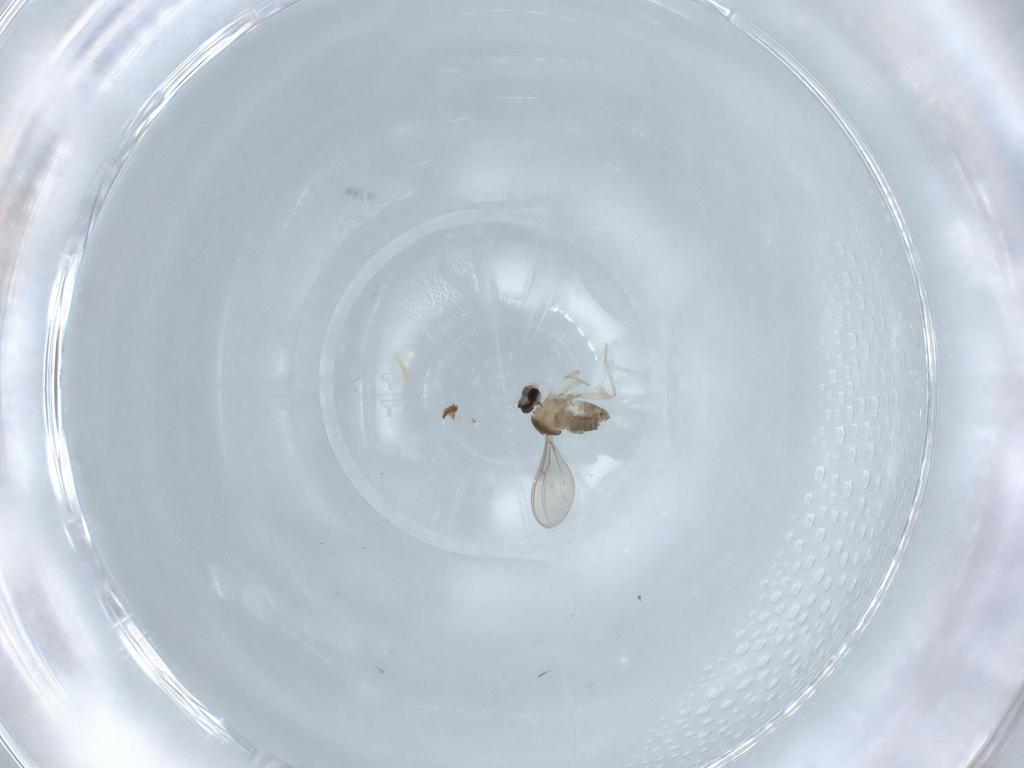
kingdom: Animalia
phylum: Arthropoda
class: Insecta
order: Diptera
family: Cecidomyiidae
